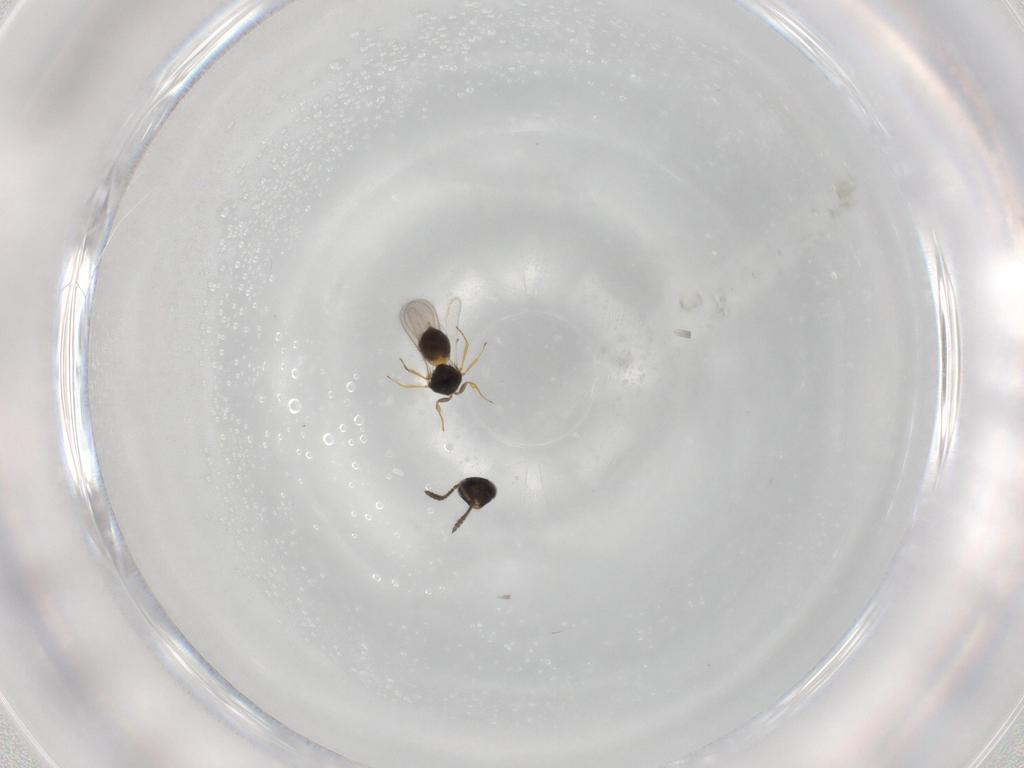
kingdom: Animalia
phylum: Arthropoda
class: Insecta
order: Hymenoptera
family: Scelionidae
